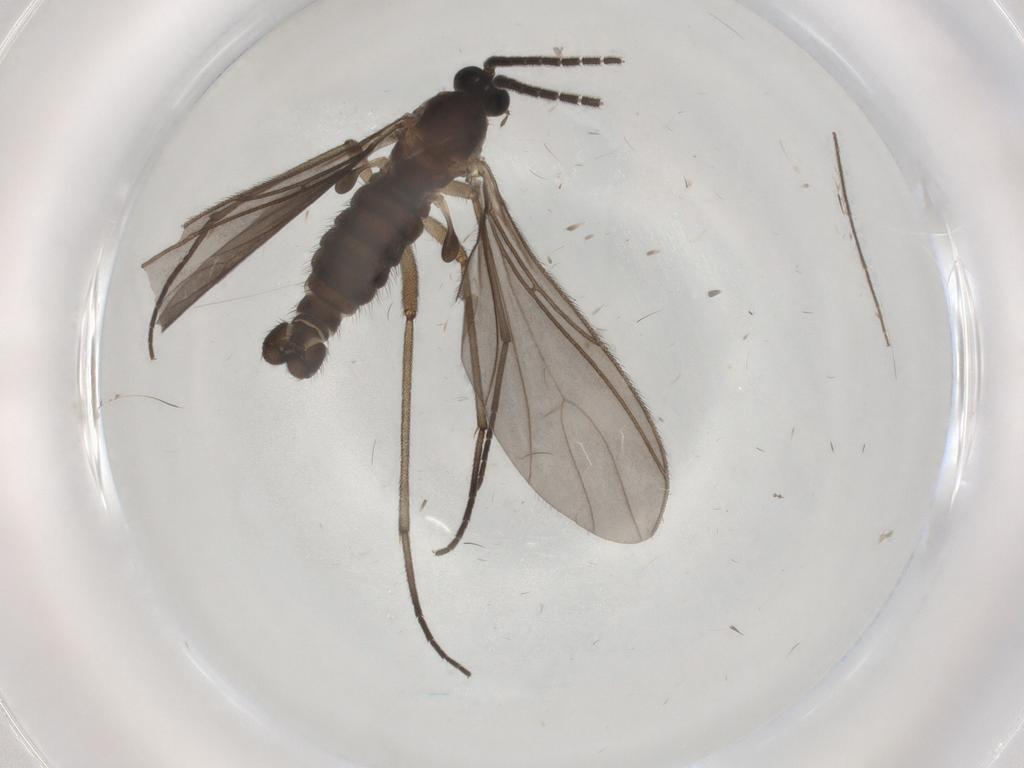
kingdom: Animalia
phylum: Arthropoda
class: Insecta
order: Diptera
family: Sciaridae
